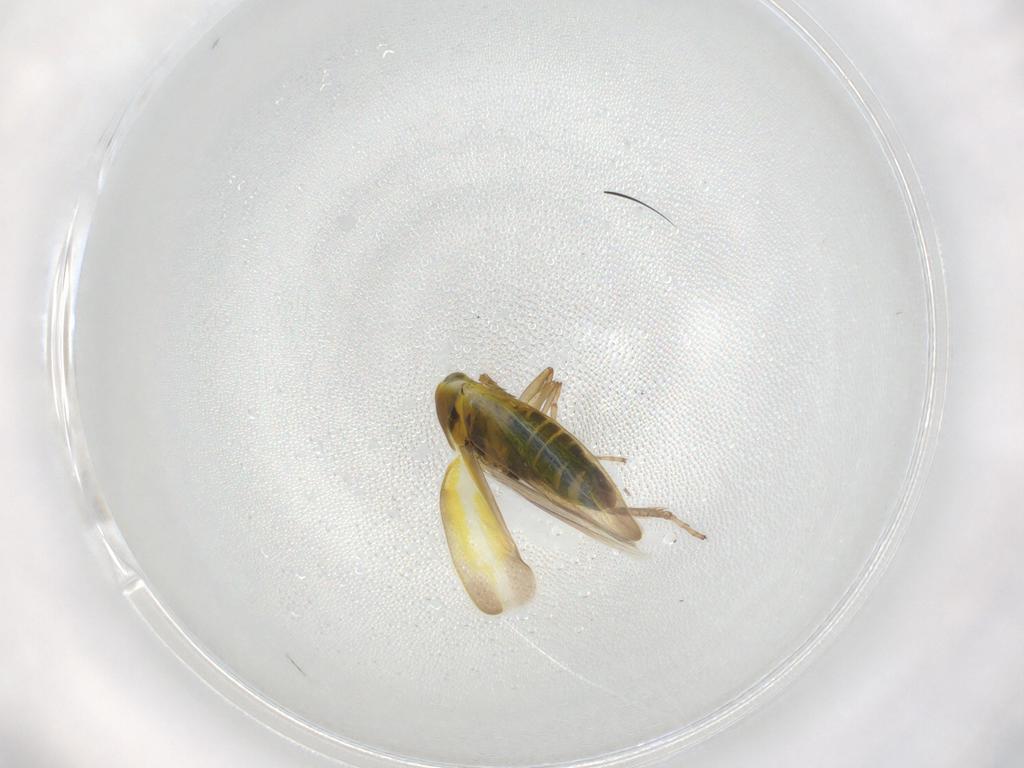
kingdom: Animalia
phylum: Arthropoda
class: Insecta
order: Hemiptera
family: Cicadellidae
